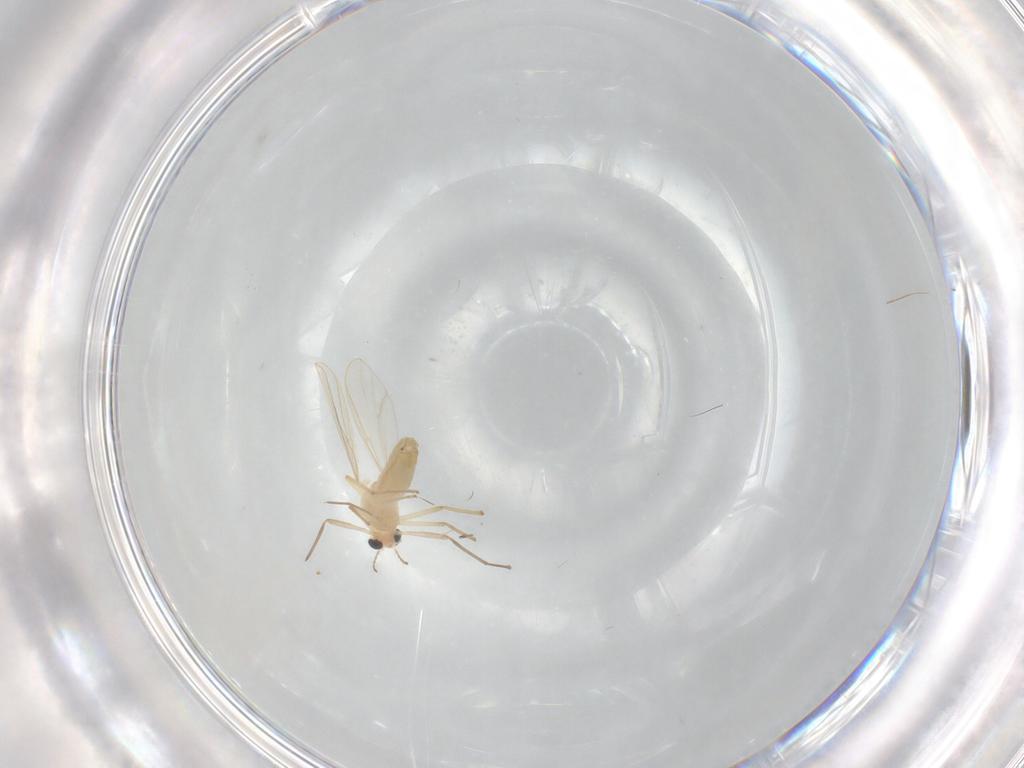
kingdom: Animalia
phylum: Arthropoda
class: Insecta
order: Diptera
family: Chironomidae
